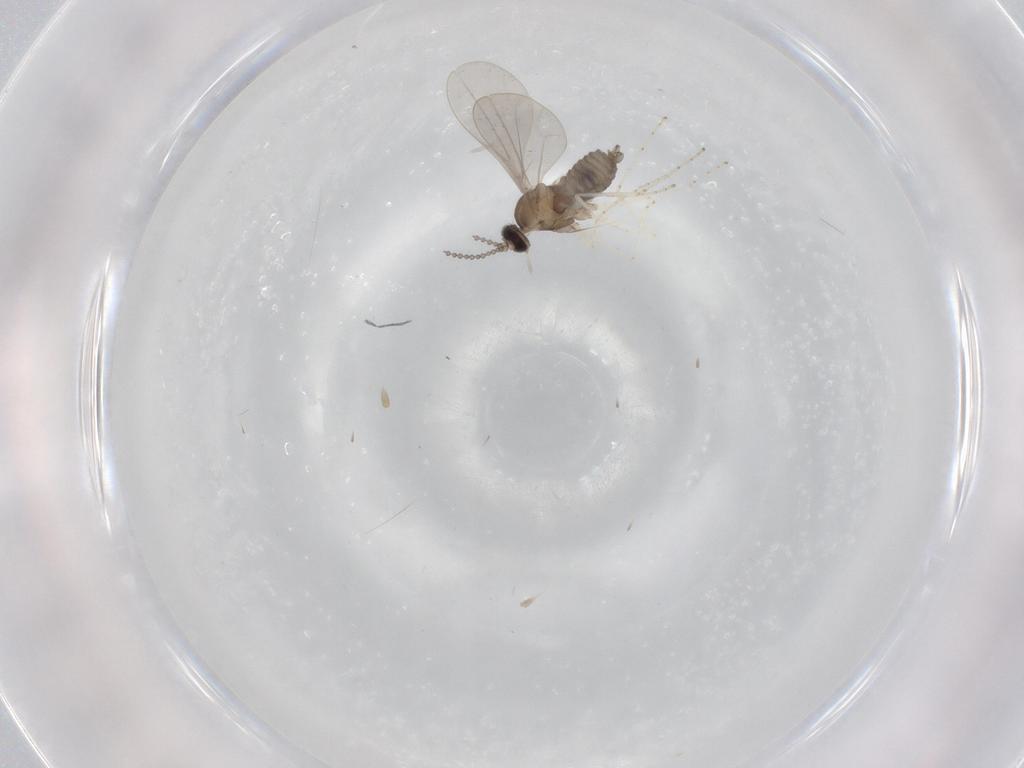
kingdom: Animalia
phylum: Arthropoda
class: Insecta
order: Diptera
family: Cecidomyiidae
